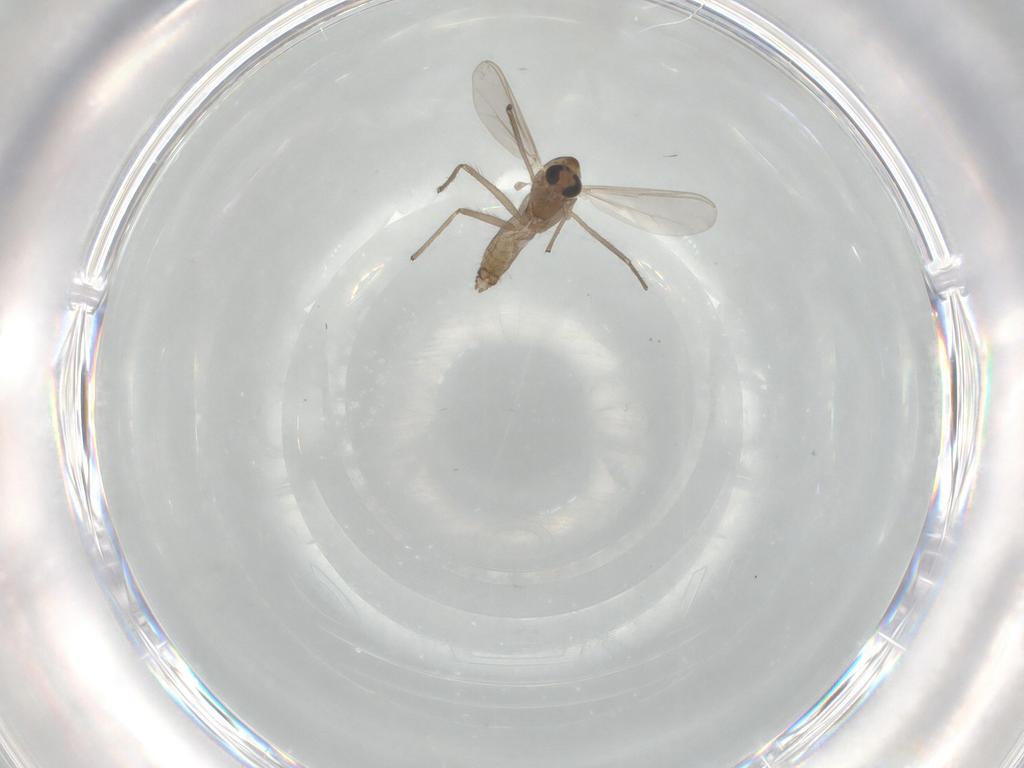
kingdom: Animalia
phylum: Arthropoda
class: Insecta
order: Diptera
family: Chironomidae
